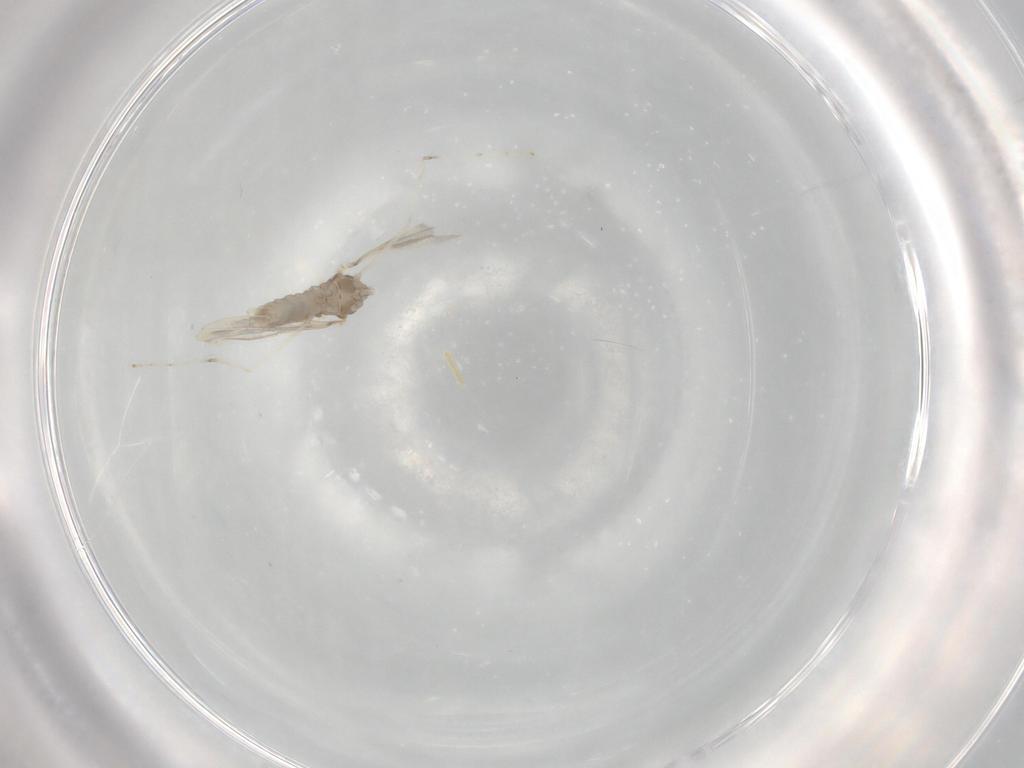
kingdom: Animalia
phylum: Arthropoda
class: Insecta
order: Diptera
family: Cecidomyiidae
